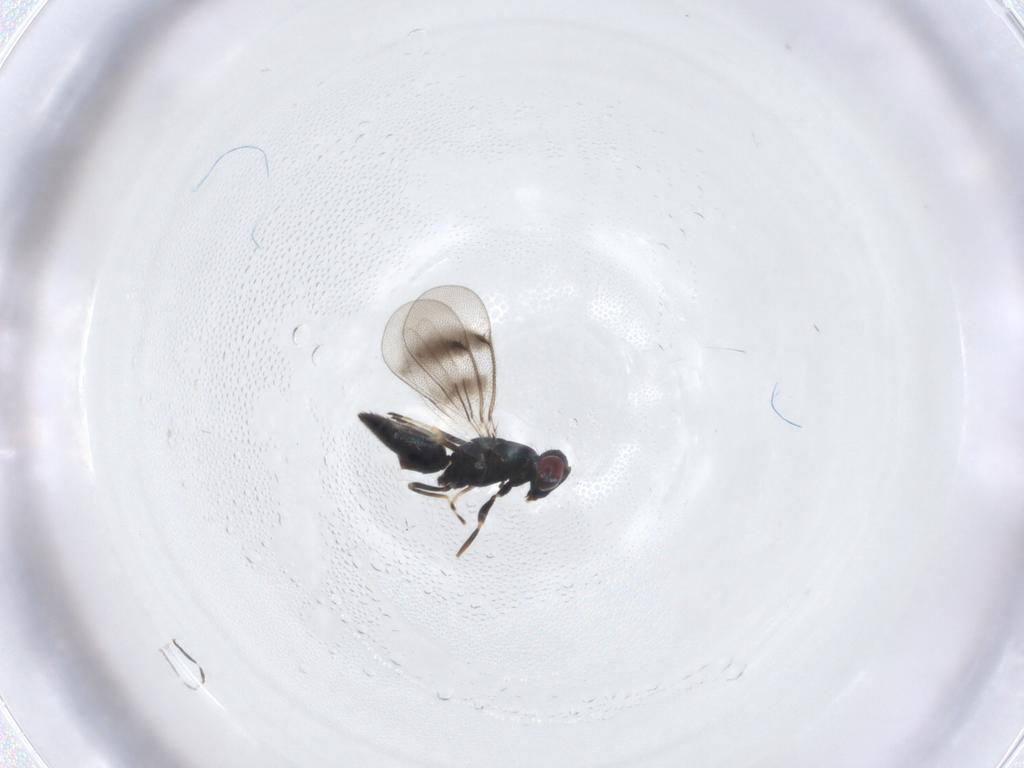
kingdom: Animalia
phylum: Arthropoda
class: Insecta
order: Hymenoptera
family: Eulophidae
